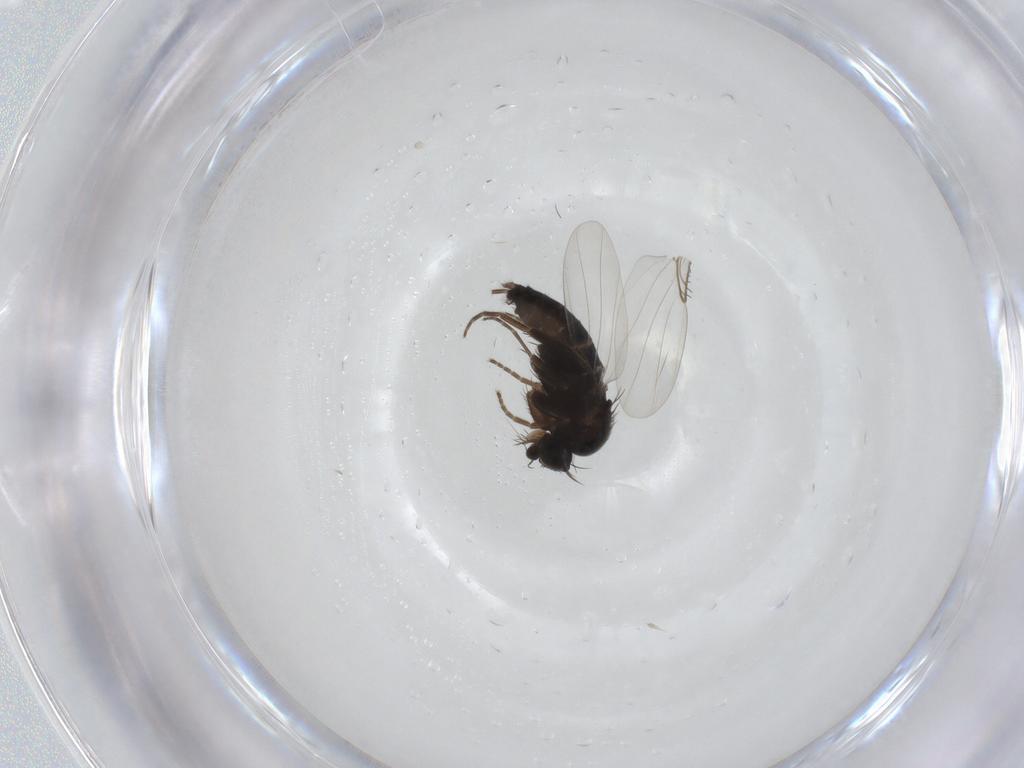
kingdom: Animalia
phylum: Arthropoda
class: Insecta
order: Diptera
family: Phoridae
